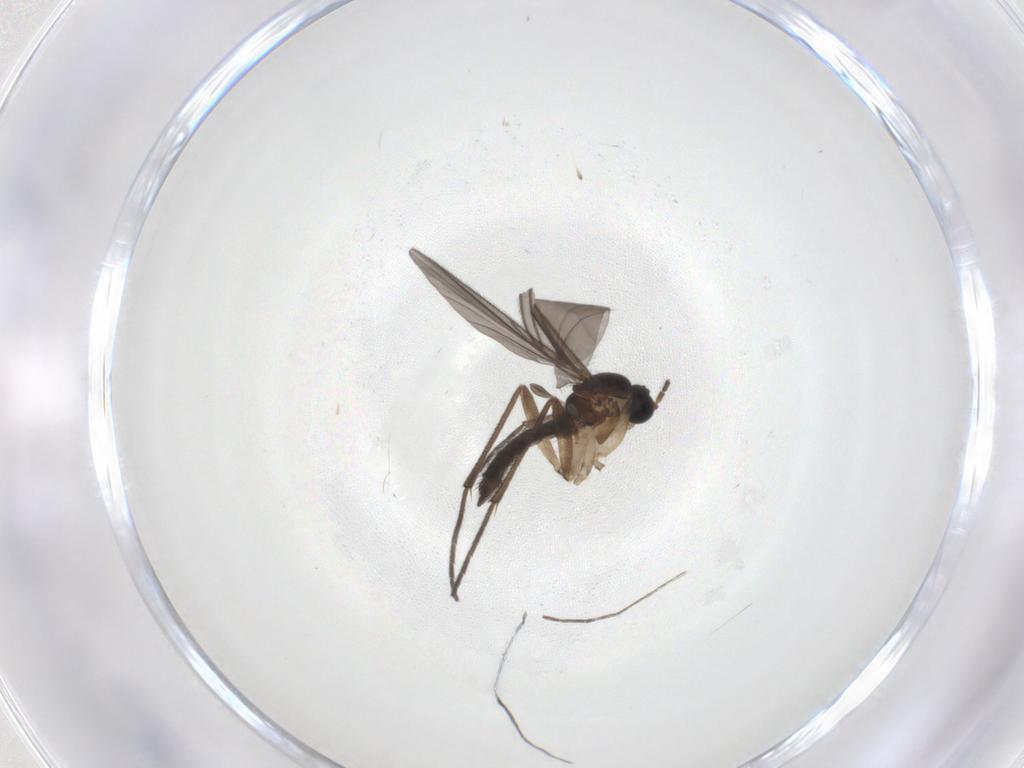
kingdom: Animalia
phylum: Arthropoda
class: Insecta
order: Diptera
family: Sciaridae
